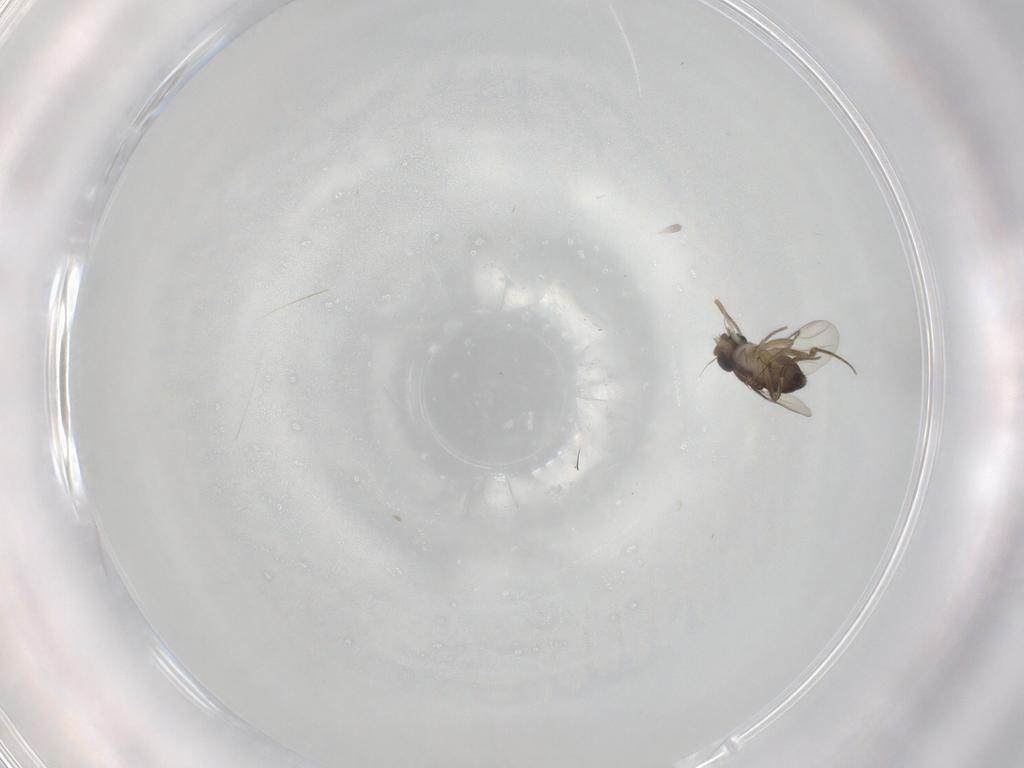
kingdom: Animalia
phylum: Arthropoda
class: Insecta
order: Diptera
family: Phoridae
